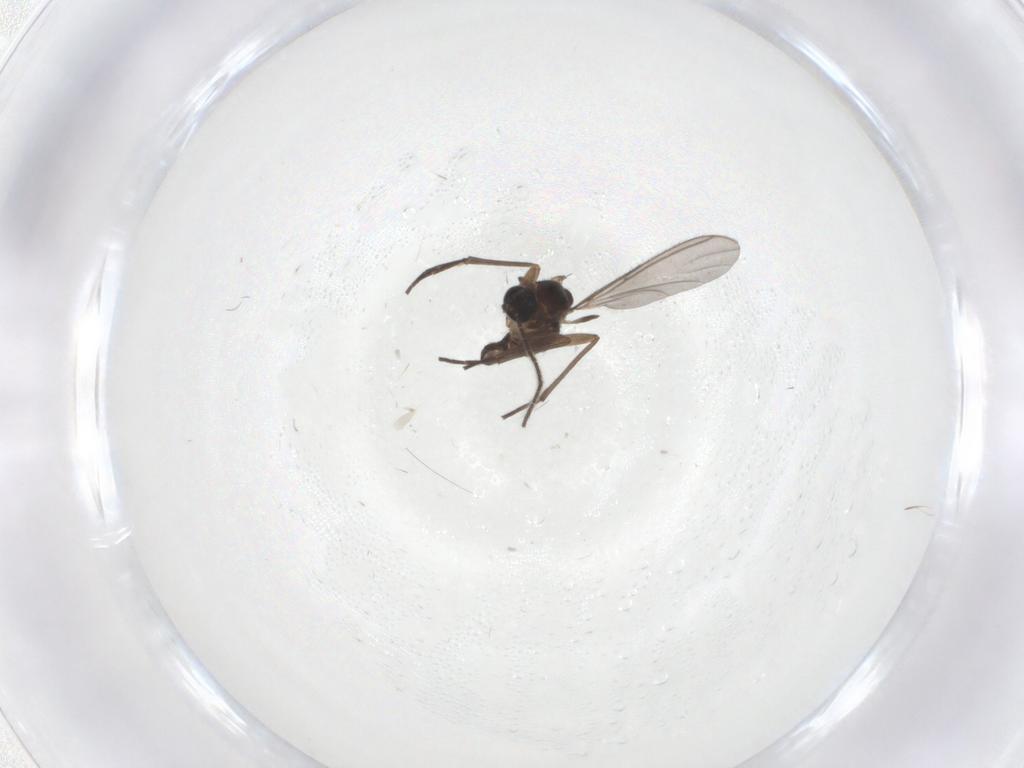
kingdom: Animalia
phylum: Arthropoda
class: Insecta
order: Diptera
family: Sciaridae
